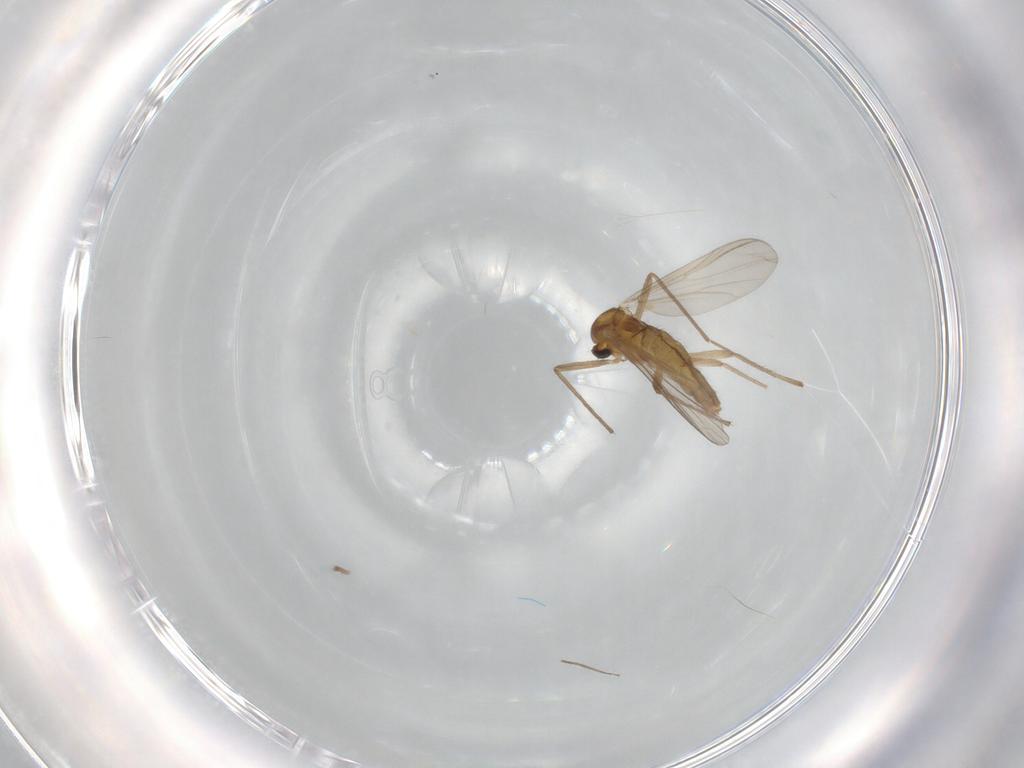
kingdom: Animalia
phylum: Arthropoda
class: Insecta
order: Diptera
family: Chironomidae
